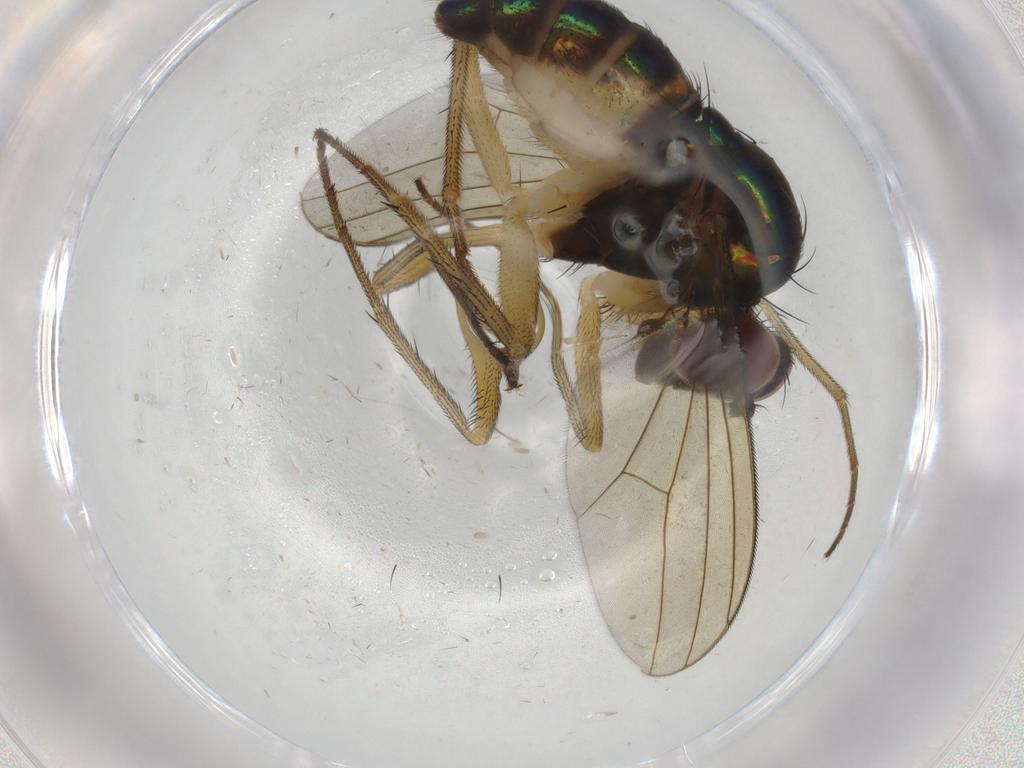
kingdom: Animalia
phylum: Arthropoda
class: Insecta
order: Diptera
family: Dolichopodidae
